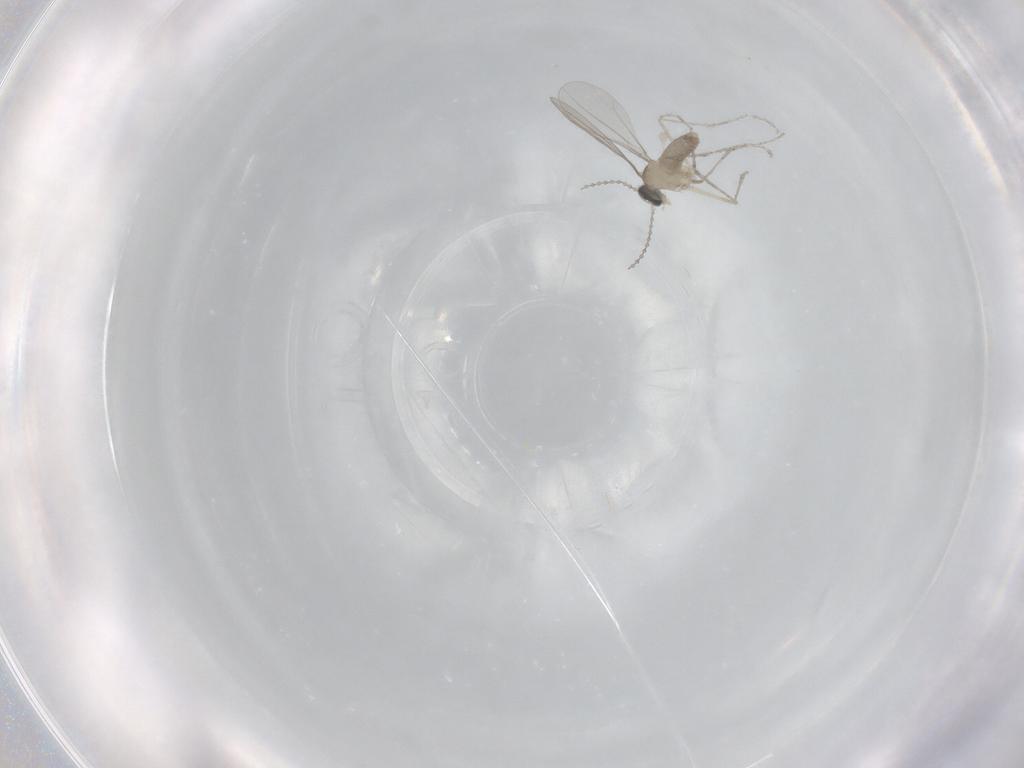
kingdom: Animalia
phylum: Arthropoda
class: Insecta
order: Diptera
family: Cecidomyiidae
